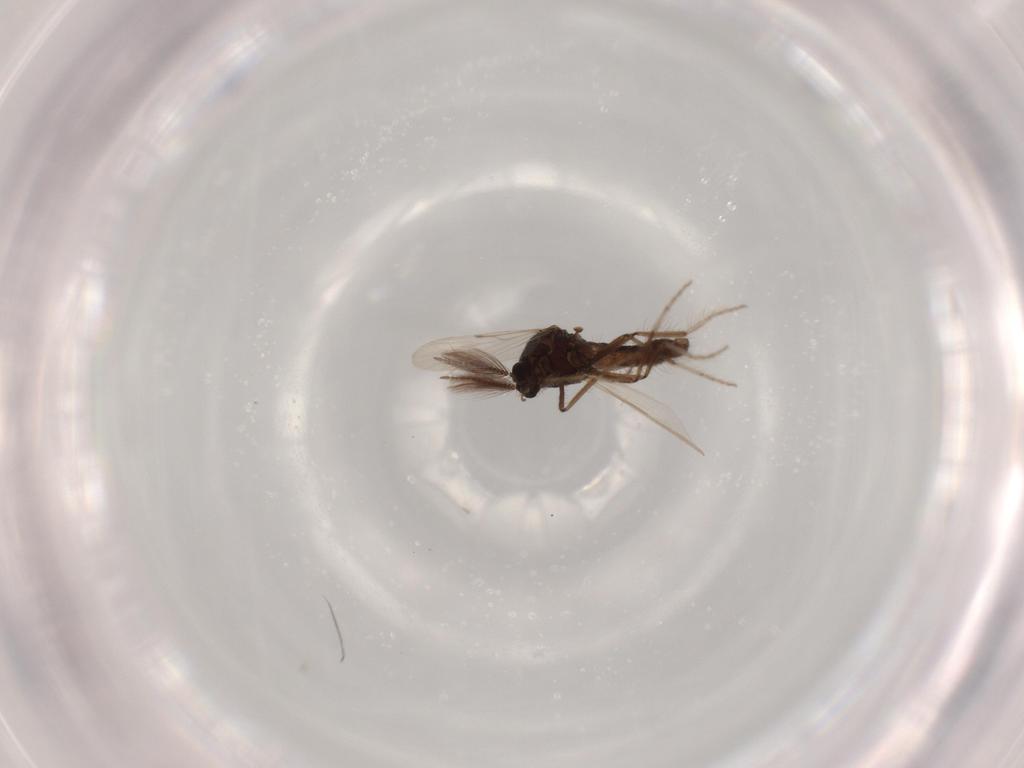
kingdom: Animalia
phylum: Arthropoda
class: Insecta
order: Diptera
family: Chironomidae
